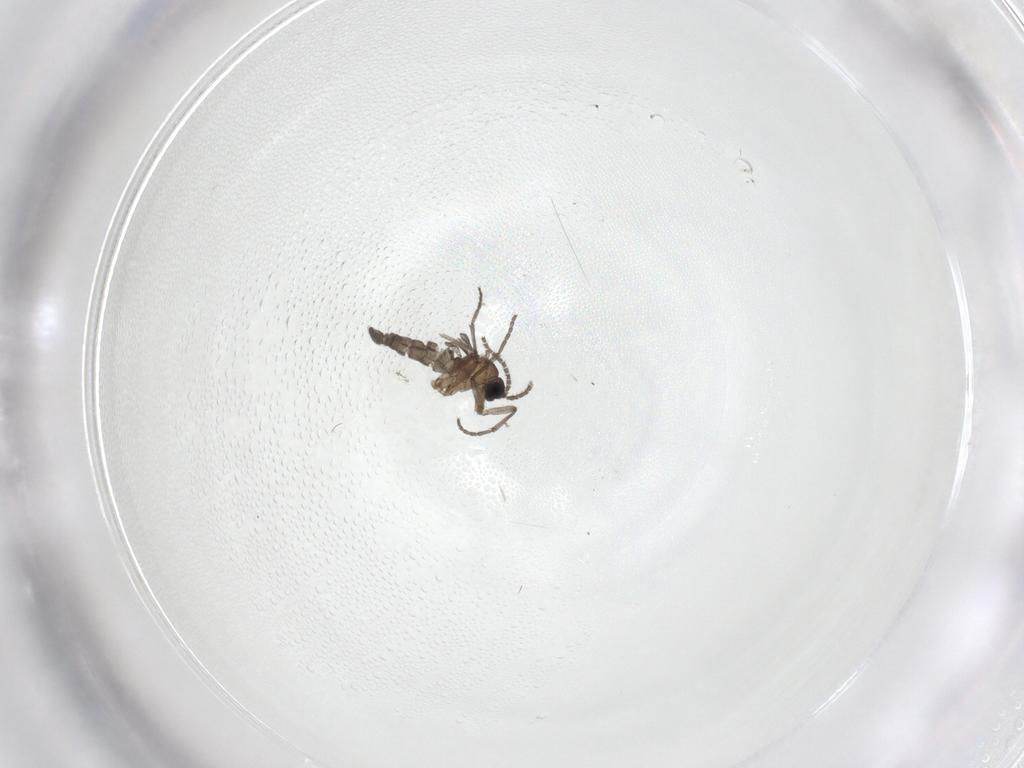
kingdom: Animalia
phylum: Arthropoda
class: Insecta
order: Diptera
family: Sciaridae
